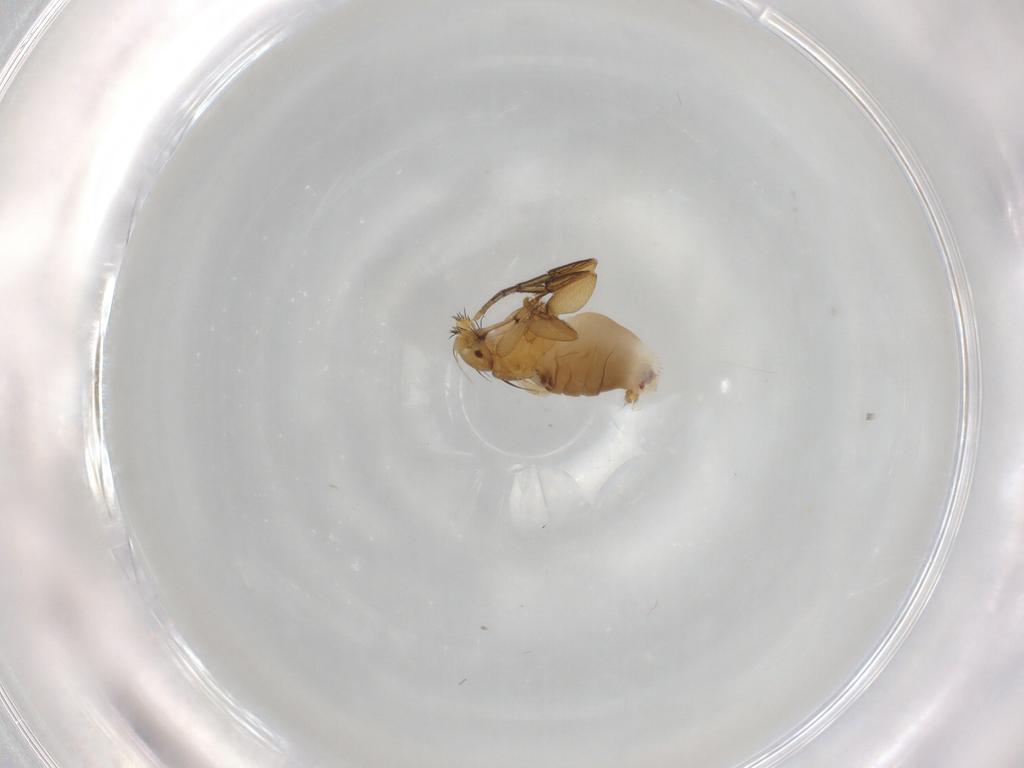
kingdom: Animalia
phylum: Arthropoda
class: Insecta
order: Diptera
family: Phoridae
